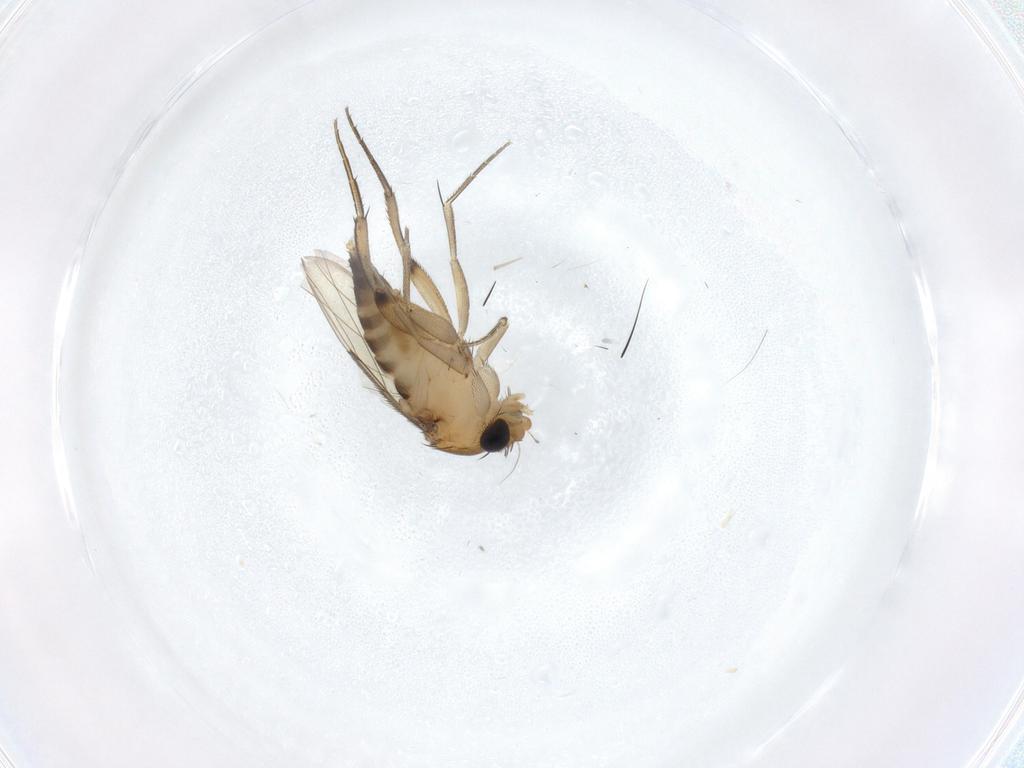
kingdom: Animalia
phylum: Arthropoda
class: Insecta
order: Diptera
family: Phoridae
